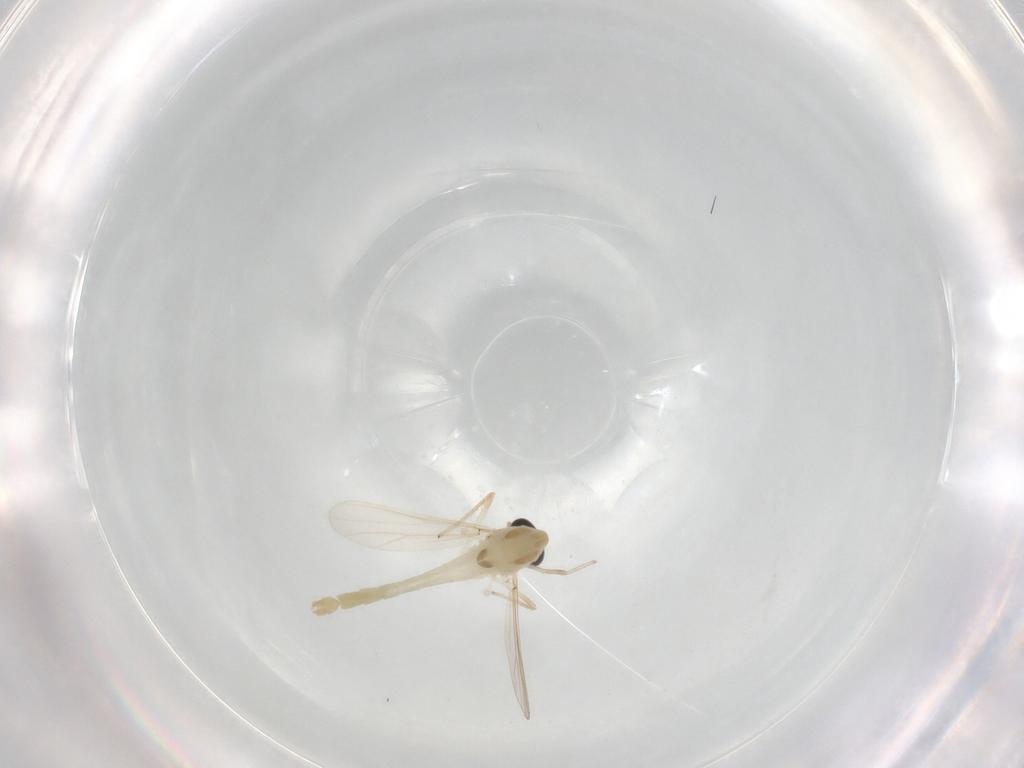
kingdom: Animalia
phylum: Arthropoda
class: Insecta
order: Diptera
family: Chironomidae
